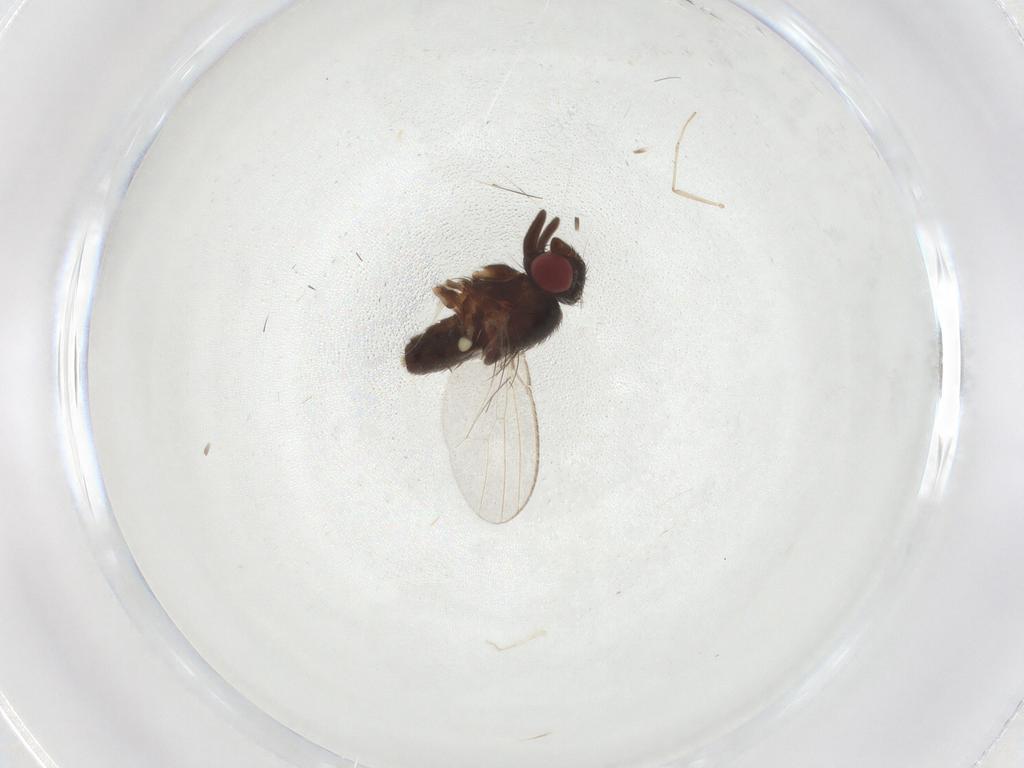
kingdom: Animalia
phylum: Arthropoda
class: Insecta
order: Diptera
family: Milichiidae
